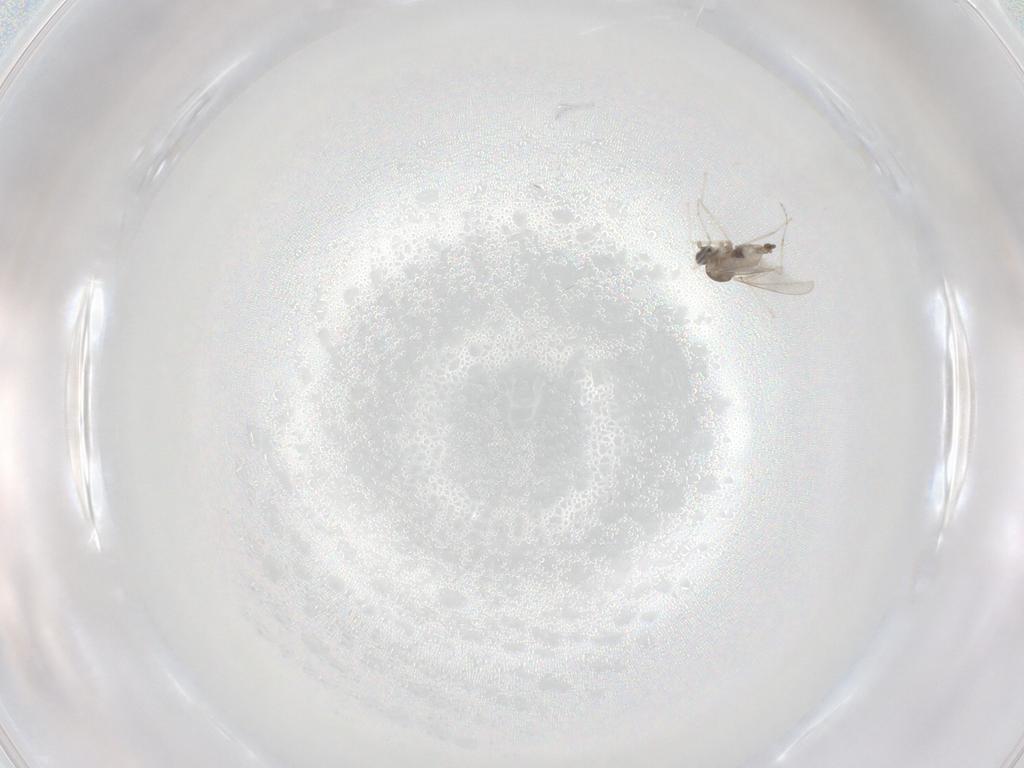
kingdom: Animalia
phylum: Arthropoda
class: Insecta
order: Diptera
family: Cecidomyiidae
